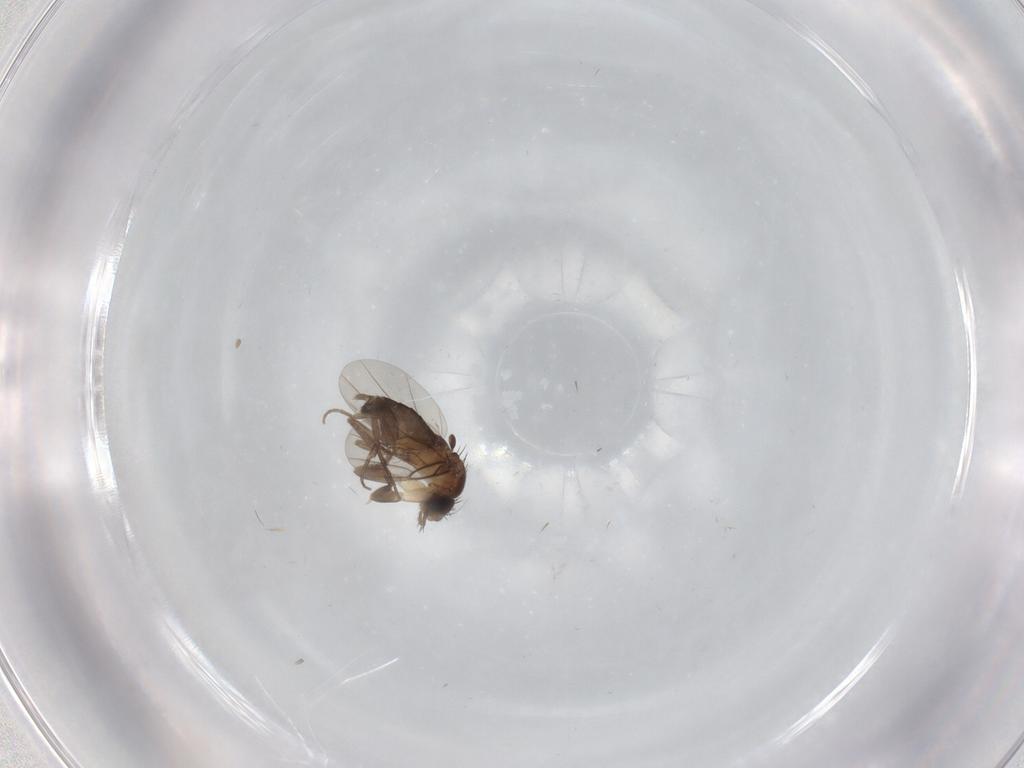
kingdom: Animalia
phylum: Arthropoda
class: Insecta
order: Diptera
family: Phoridae
